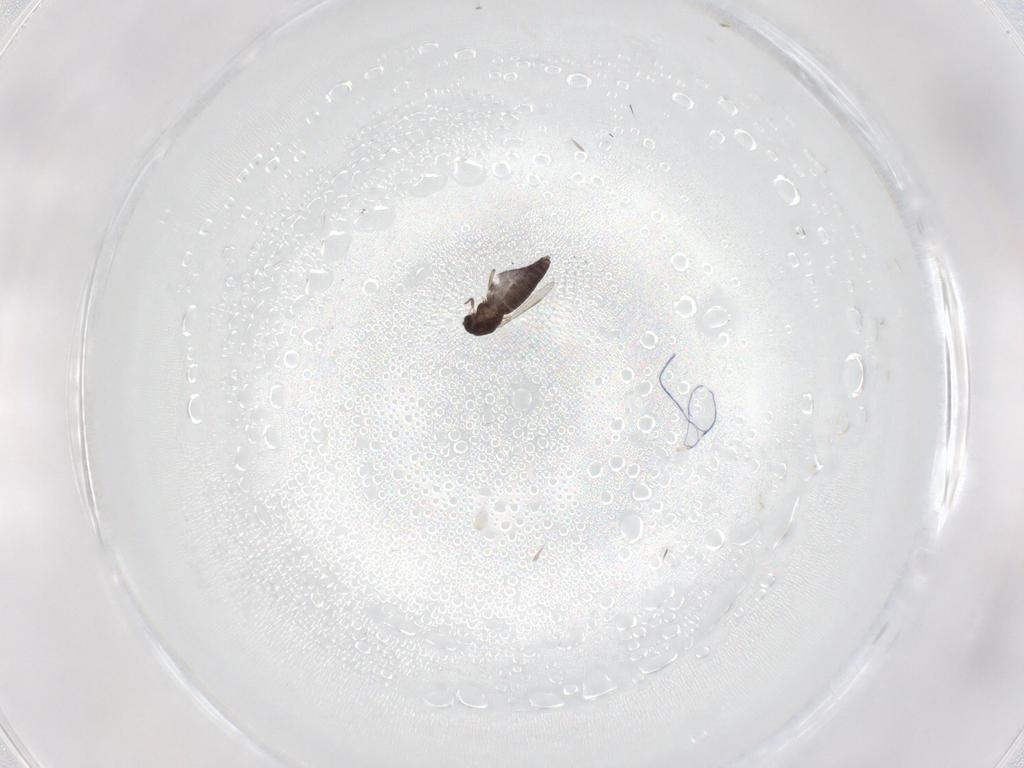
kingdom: Animalia
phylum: Arthropoda
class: Insecta
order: Diptera
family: Chironomidae
